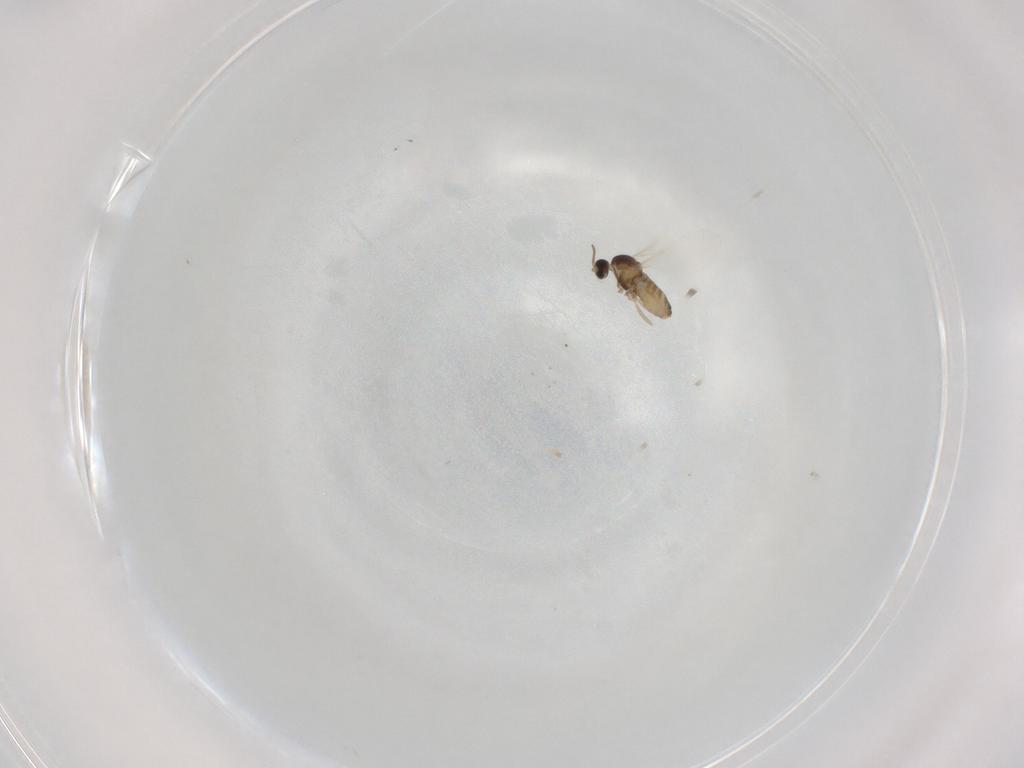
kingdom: Animalia
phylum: Arthropoda
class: Insecta
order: Diptera
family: Cecidomyiidae
